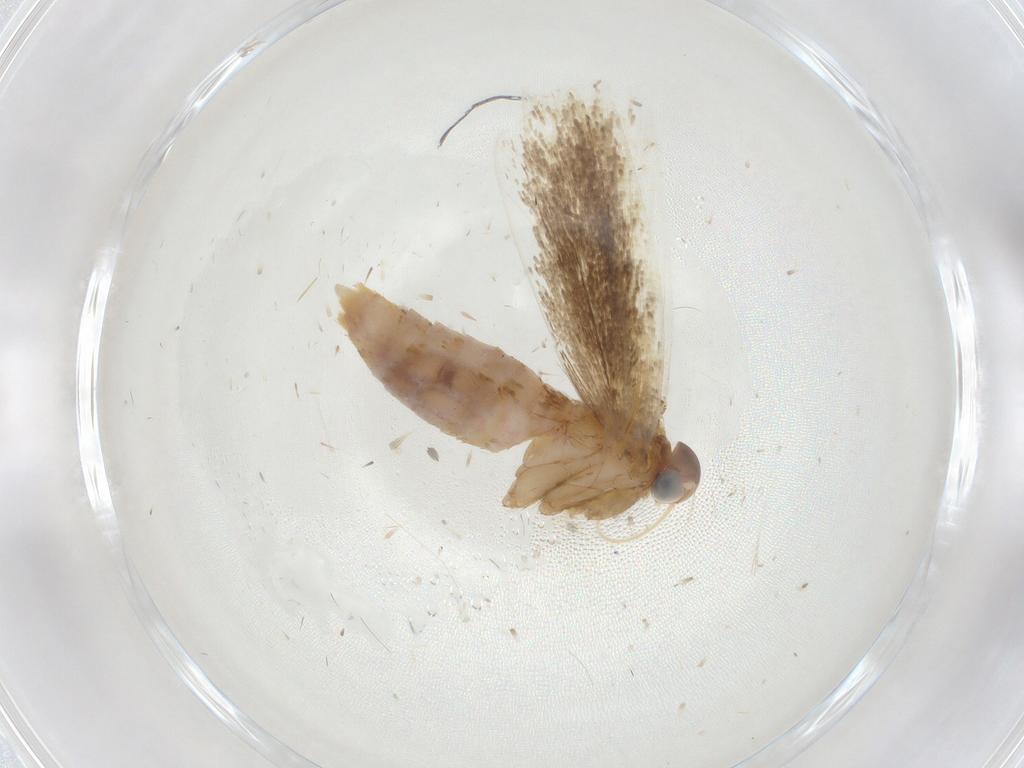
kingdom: Animalia
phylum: Arthropoda
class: Insecta
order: Lepidoptera
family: Gelechiidae
